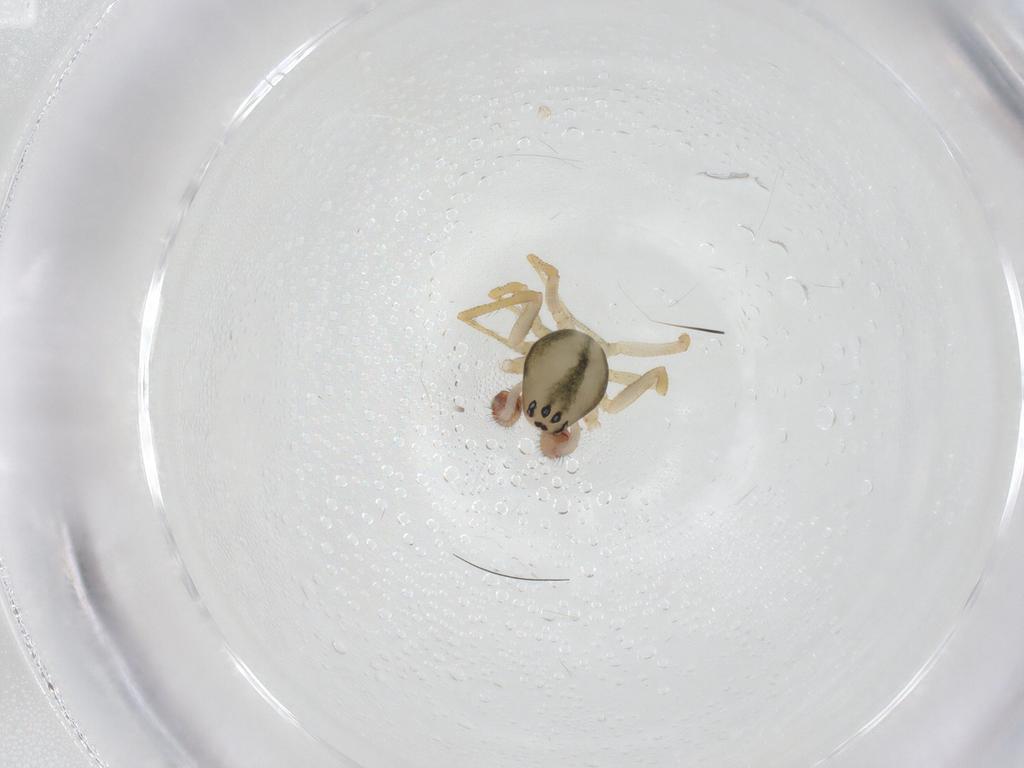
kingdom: Animalia
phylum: Arthropoda
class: Arachnida
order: Araneae
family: Theridiidae
